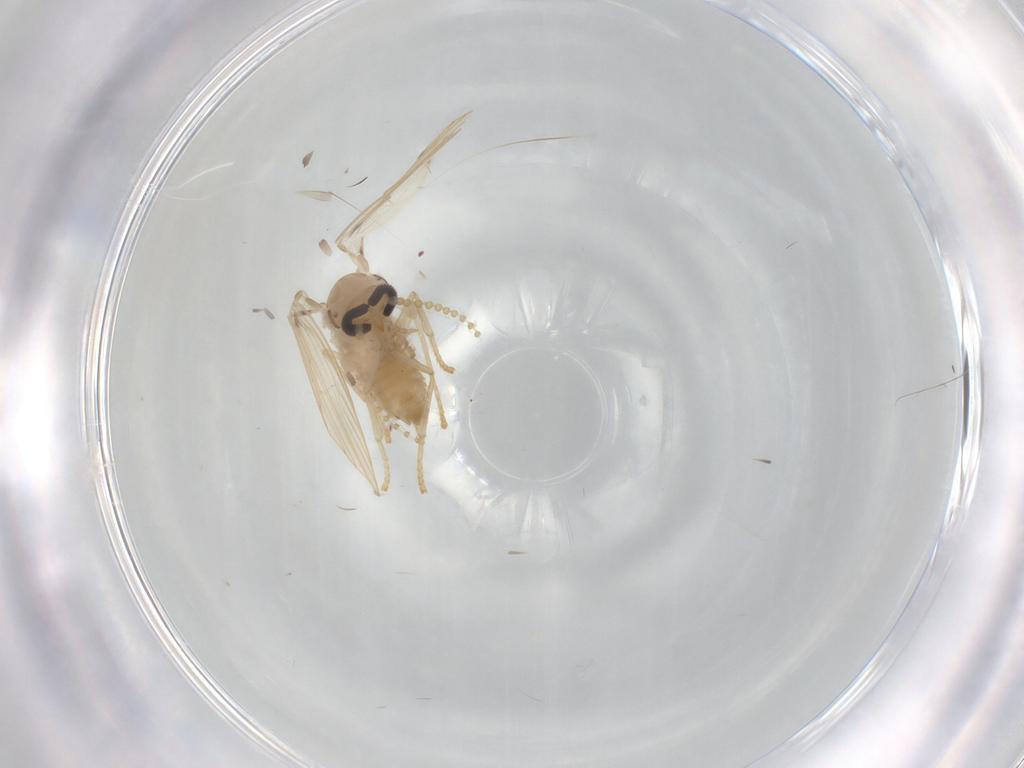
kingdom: Animalia
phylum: Arthropoda
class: Insecta
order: Diptera
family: Psychodidae
